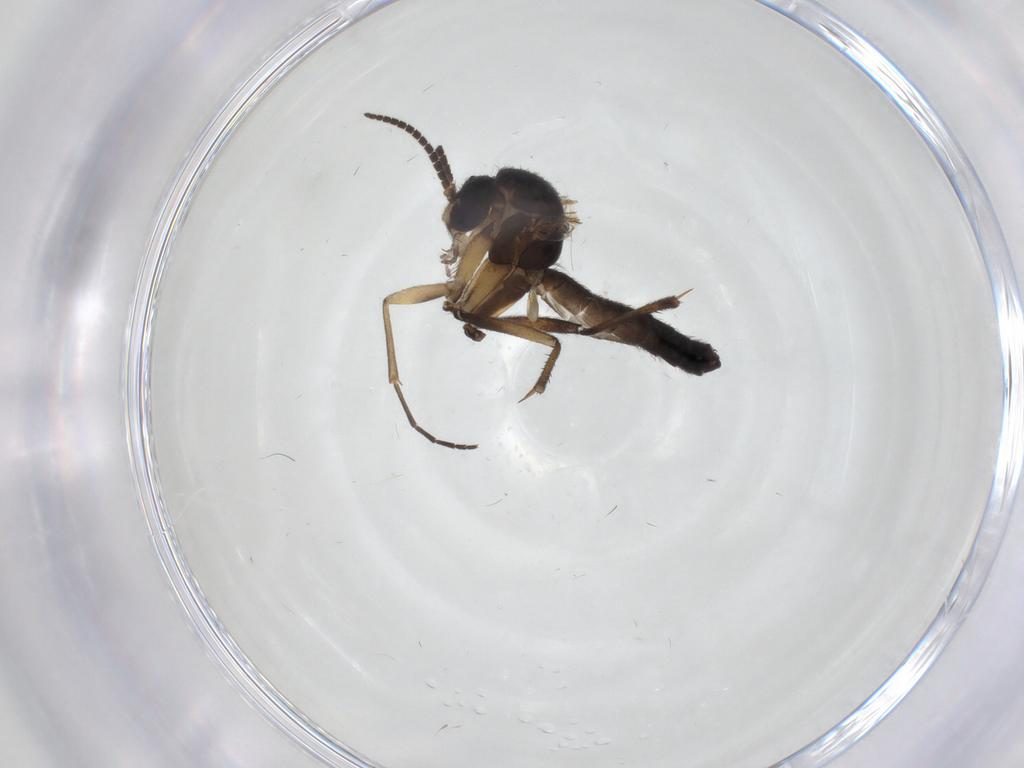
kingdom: Animalia
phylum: Arthropoda
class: Insecta
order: Diptera
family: Mycetophilidae
